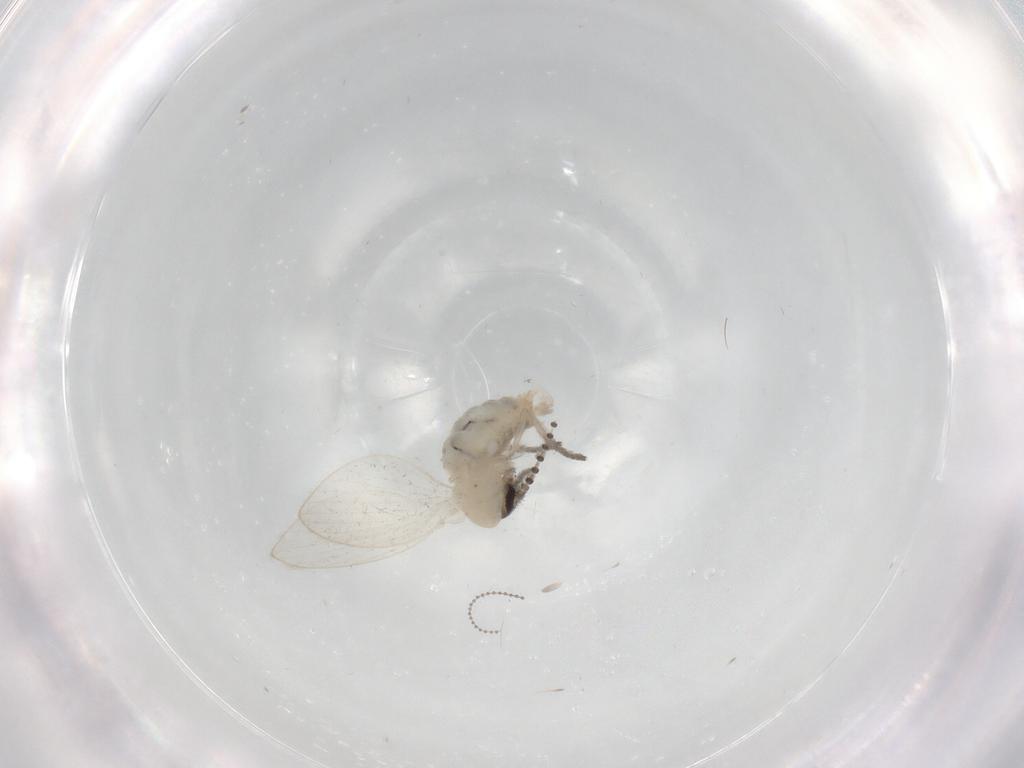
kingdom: Animalia
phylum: Arthropoda
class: Insecta
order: Diptera
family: Psychodidae
